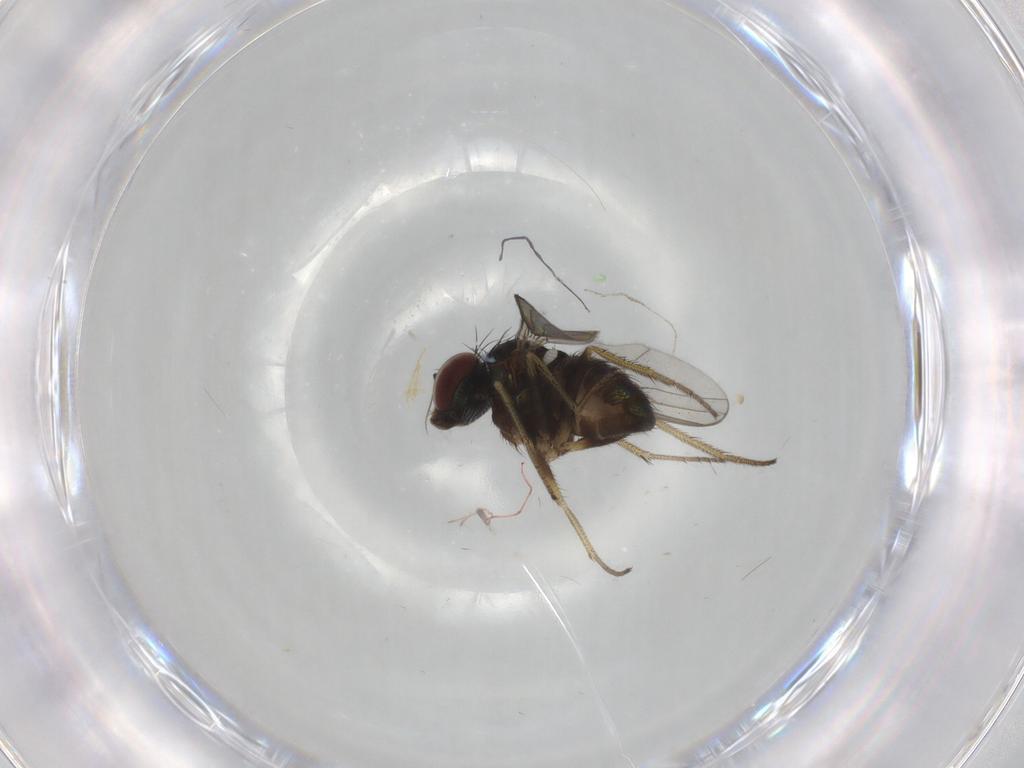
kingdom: Animalia
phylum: Arthropoda
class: Insecta
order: Diptera
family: Dolichopodidae
